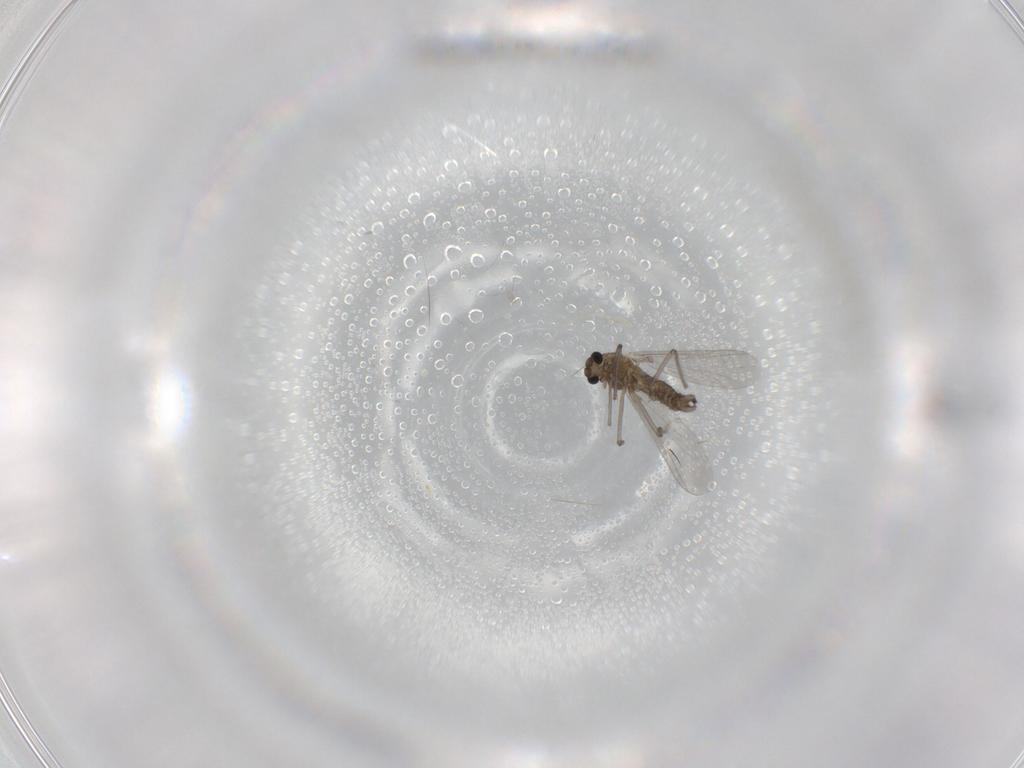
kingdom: Animalia
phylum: Arthropoda
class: Insecta
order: Diptera
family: Chironomidae
